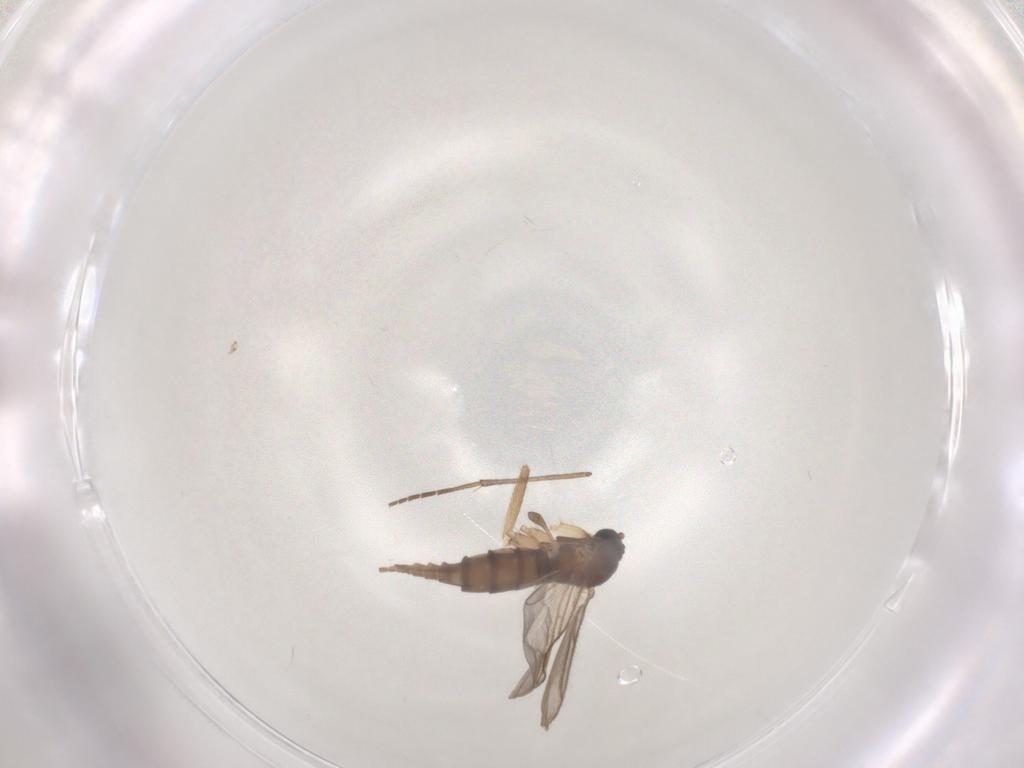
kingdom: Animalia
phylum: Arthropoda
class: Insecta
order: Diptera
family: Sciaridae
